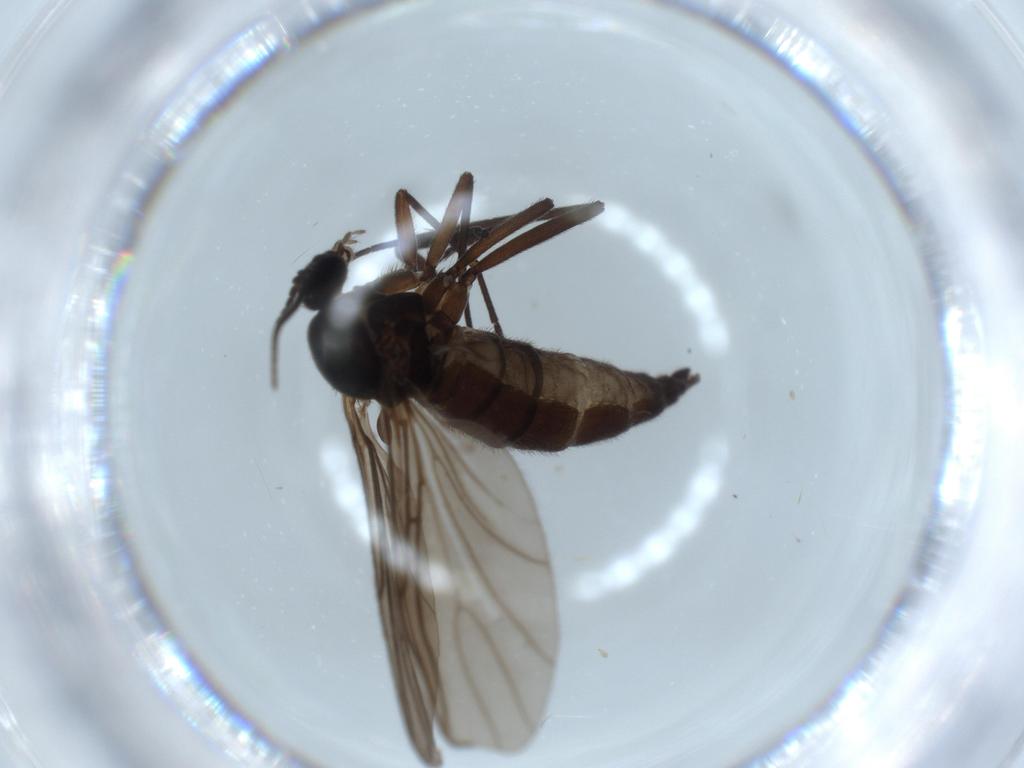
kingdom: Animalia
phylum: Arthropoda
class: Insecta
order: Diptera
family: Sciaridae
